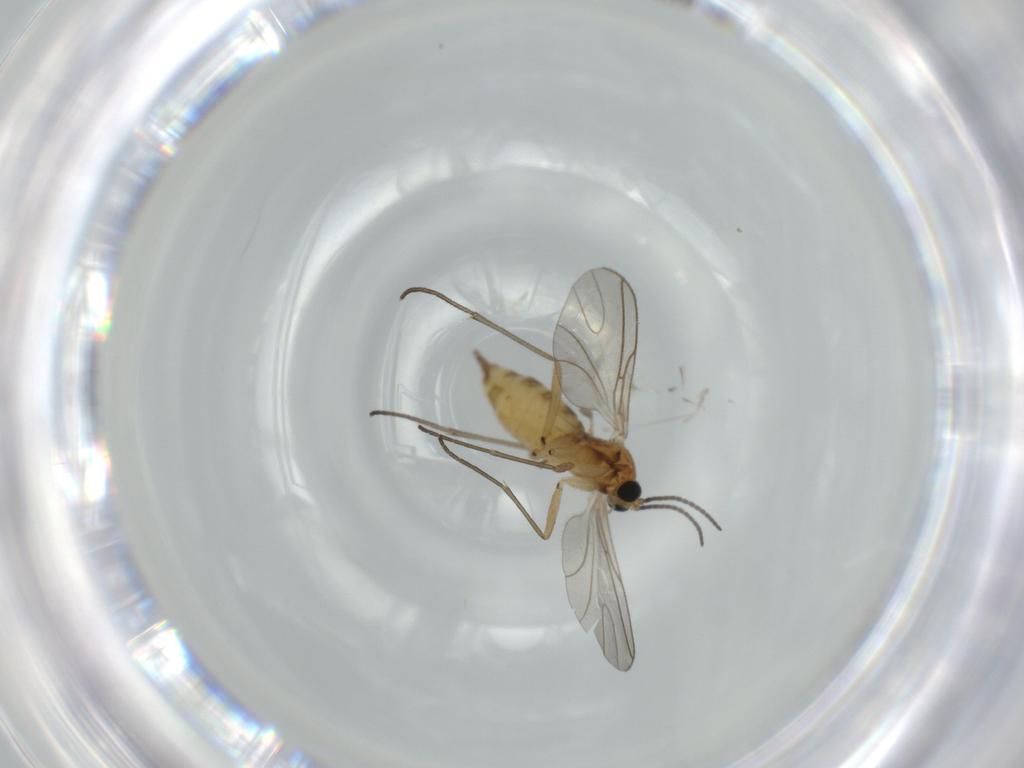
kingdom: Animalia
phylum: Arthropoda
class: Insecta
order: Diptera
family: Sciaridae
